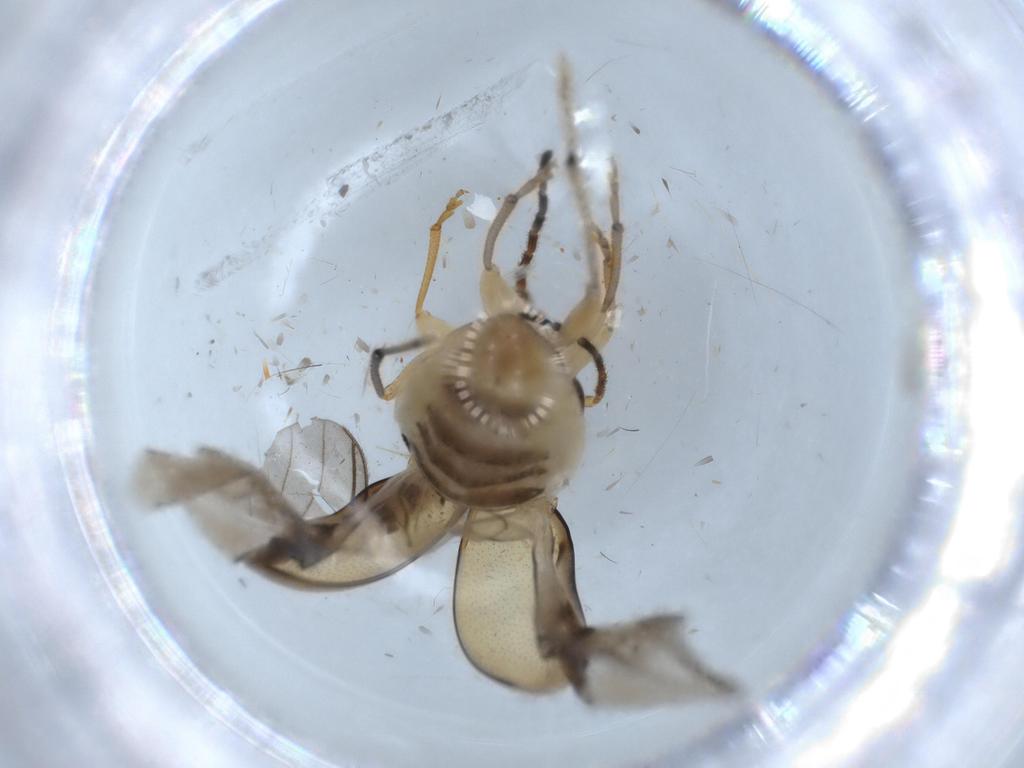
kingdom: Animalia
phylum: Arthropoda
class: Insecta
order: Coleoptera
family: Chrysomelidae
